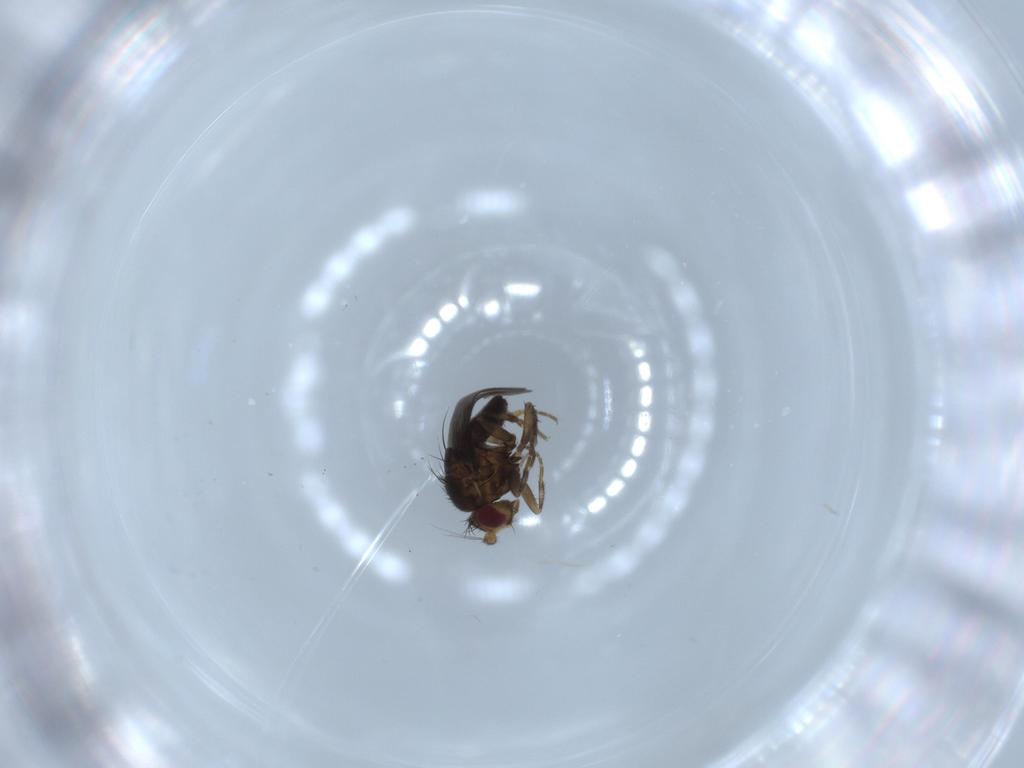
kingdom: Animalia
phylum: Arthropoda
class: Insecta
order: Diptera
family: Sphaeroceridae
